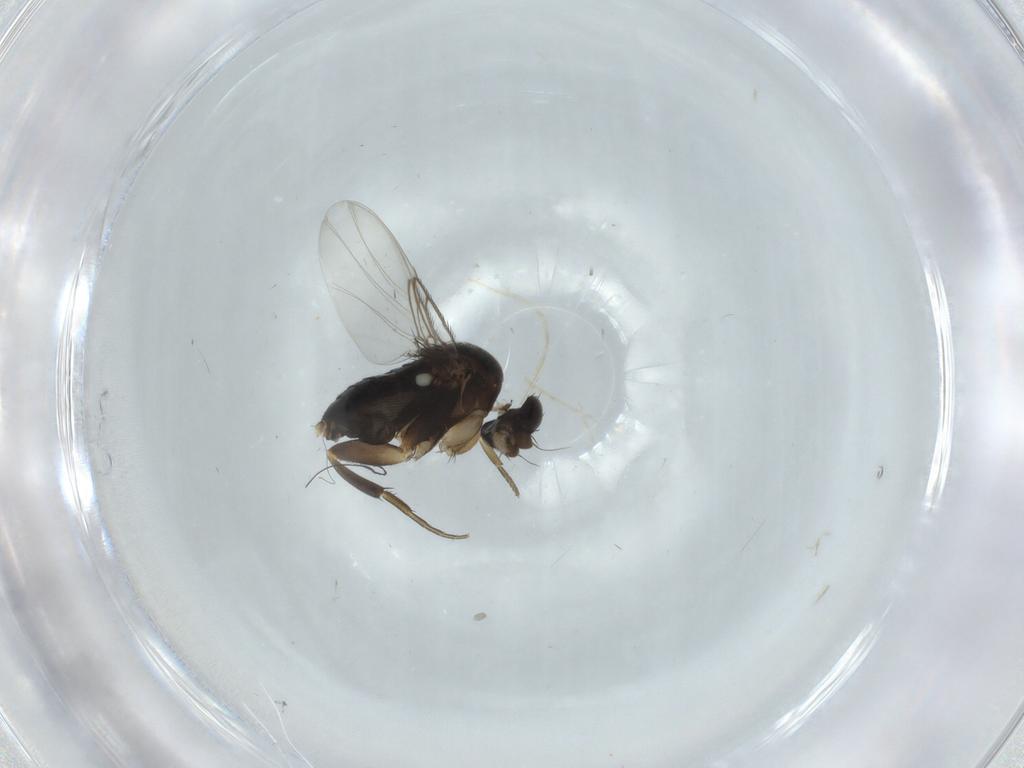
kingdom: Animalia
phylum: Arthropoda
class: Insecta
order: Diptera
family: Phoridae
